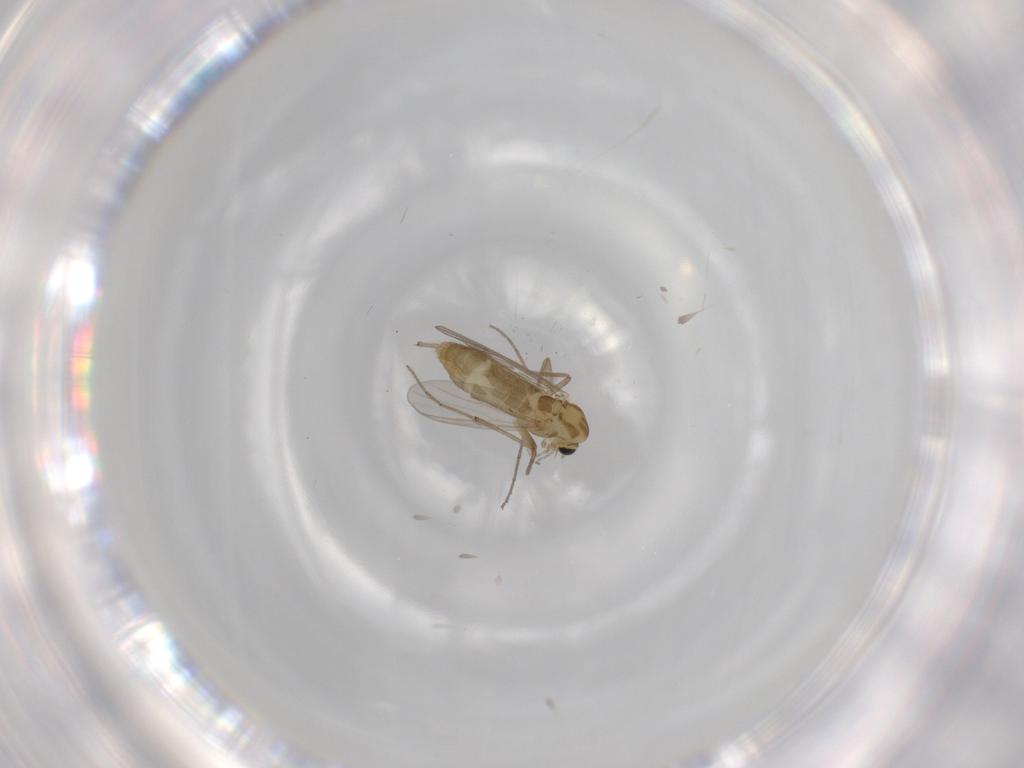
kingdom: Animalia
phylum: Arthropoda
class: Insecta
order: Diptera
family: Chironomidae
